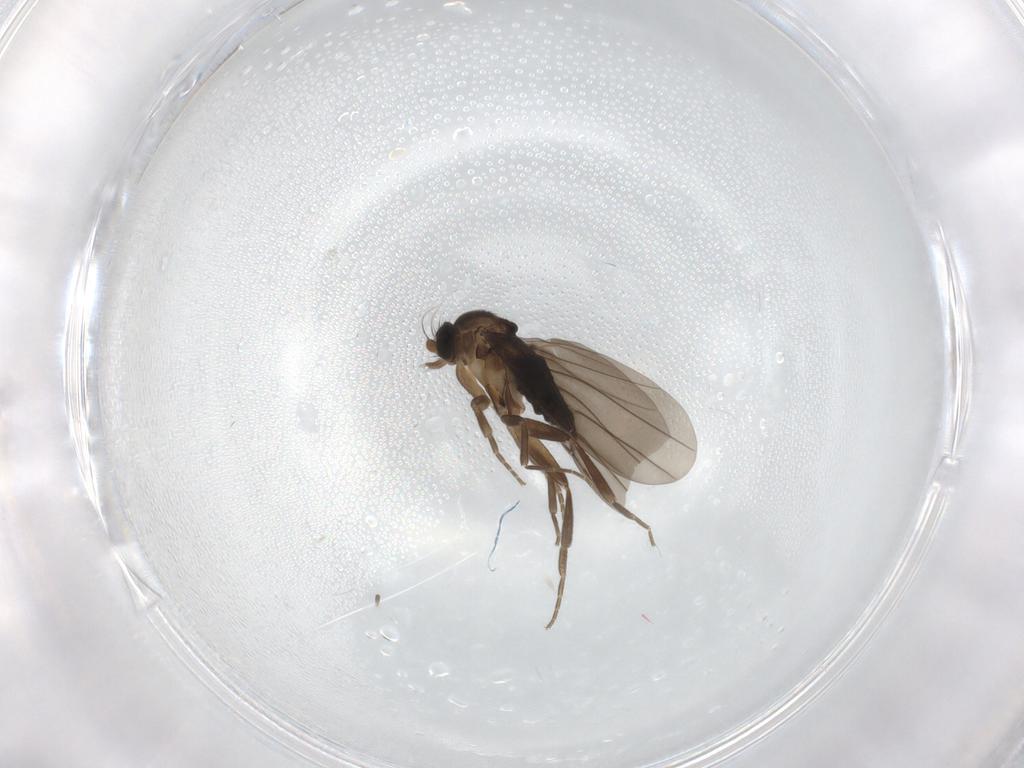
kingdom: Animalia
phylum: Arthropoda
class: Insecta
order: Diptera
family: Phoridae
